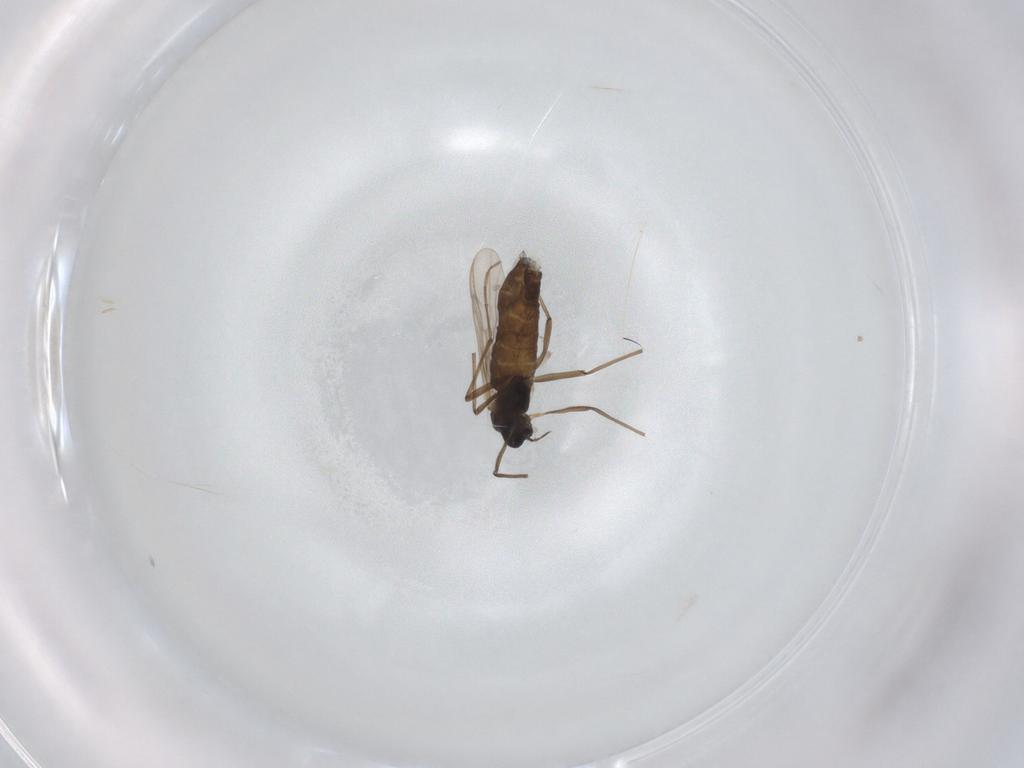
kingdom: Animalia
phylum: Arthropoda
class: Insecta
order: Diptera
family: Chironomidae
